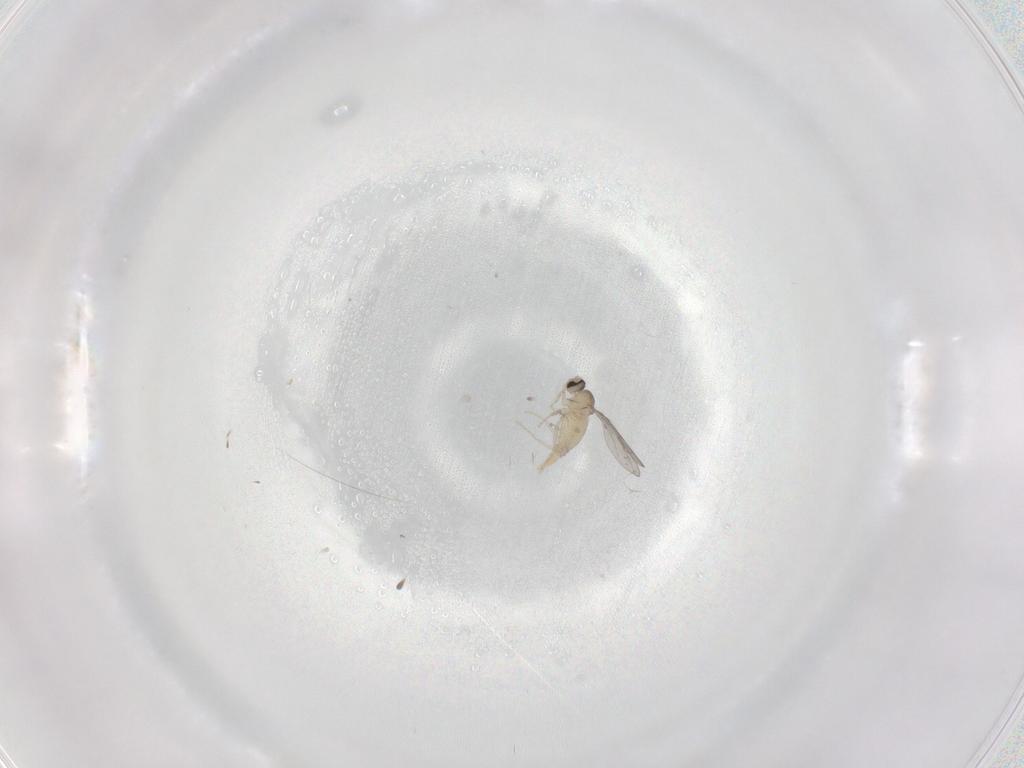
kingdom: Animalia
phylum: Arthropoda
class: Insecta
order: Diptera
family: Cecidomyiidae
